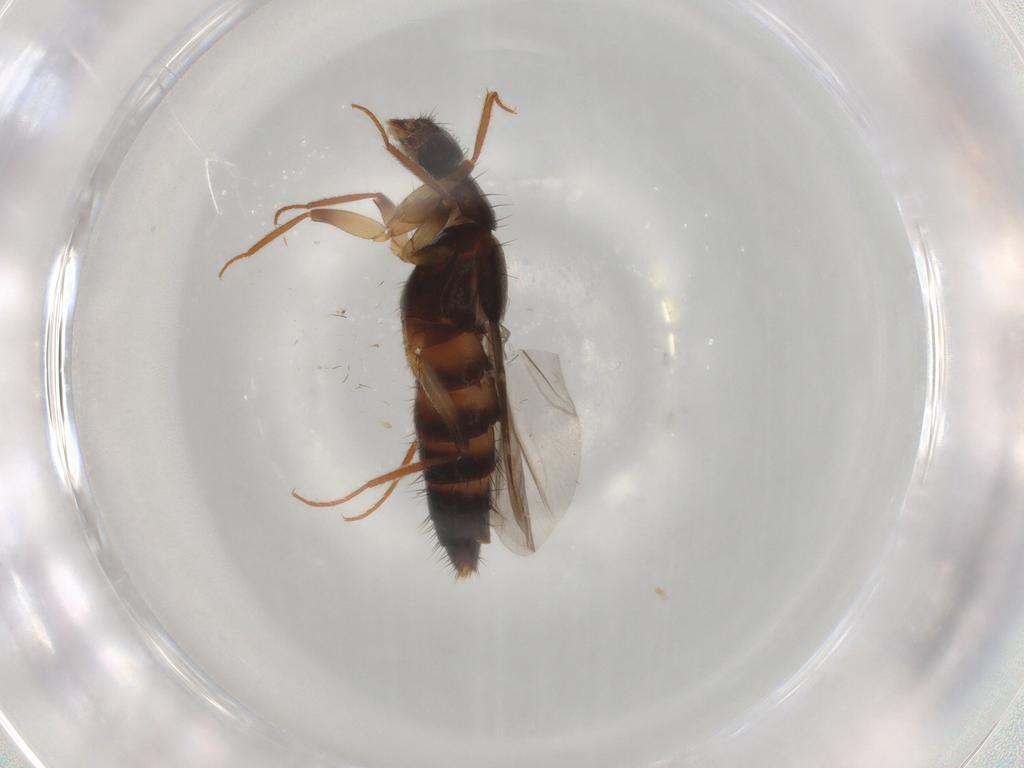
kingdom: Animalia
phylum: Arthropoda
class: Insecta
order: Coleoptera
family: Staphylinidae
